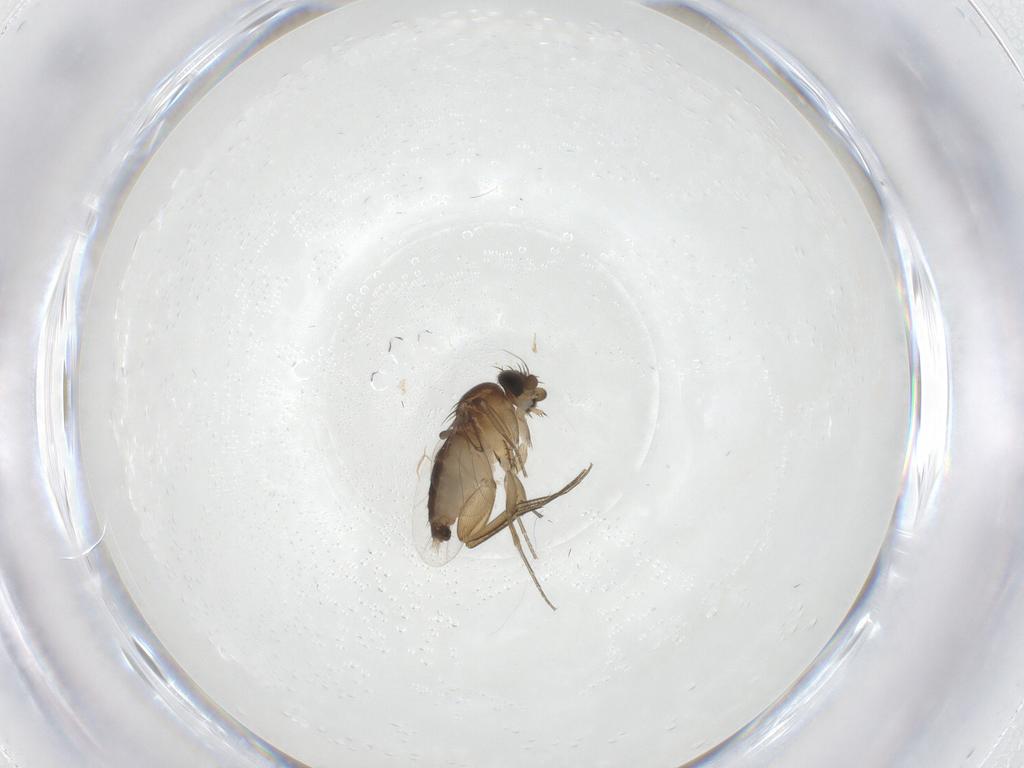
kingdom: Animalia
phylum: Arthropoda
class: Insecta
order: Diptera
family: Phoridae
